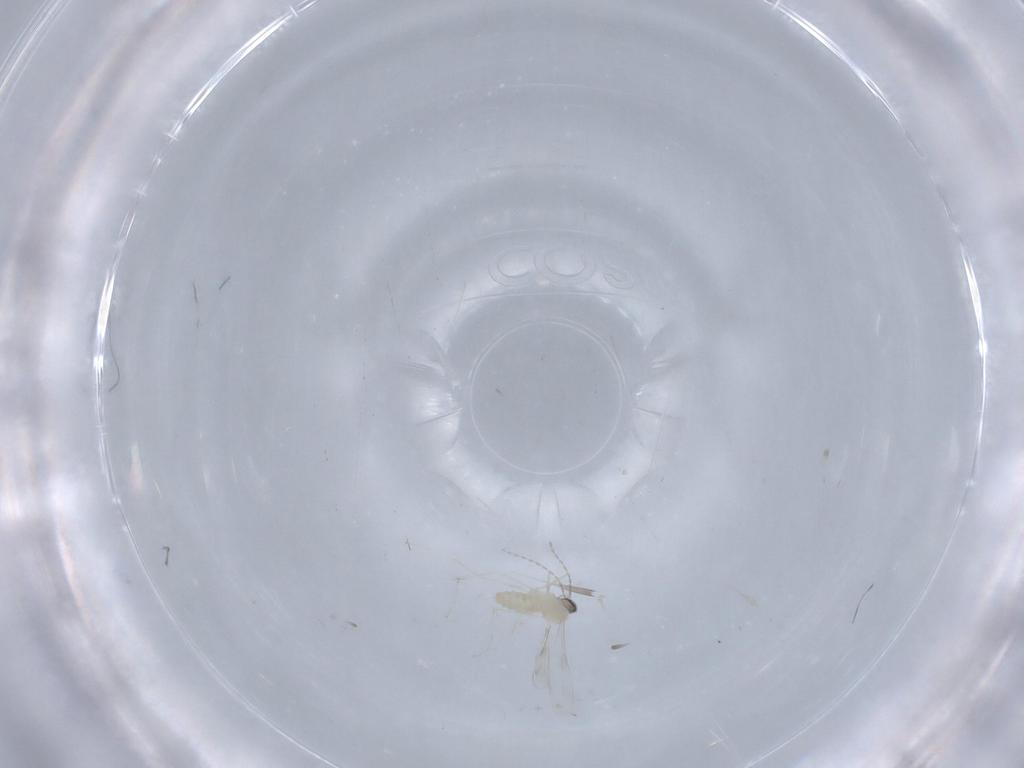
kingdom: Animalia
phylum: Arthropoda
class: Insecta
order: Diptera
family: Cecidomyiidae
